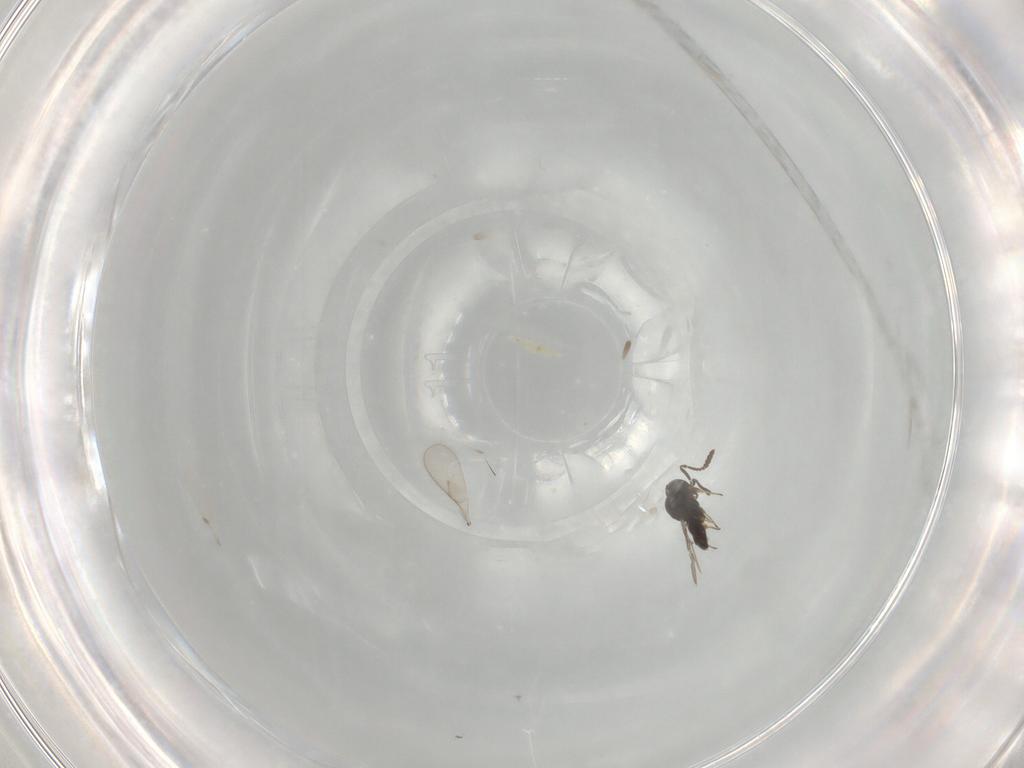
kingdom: Animalia
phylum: Arthropoda
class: Insecta
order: Hymenoptera
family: Scelionidae
